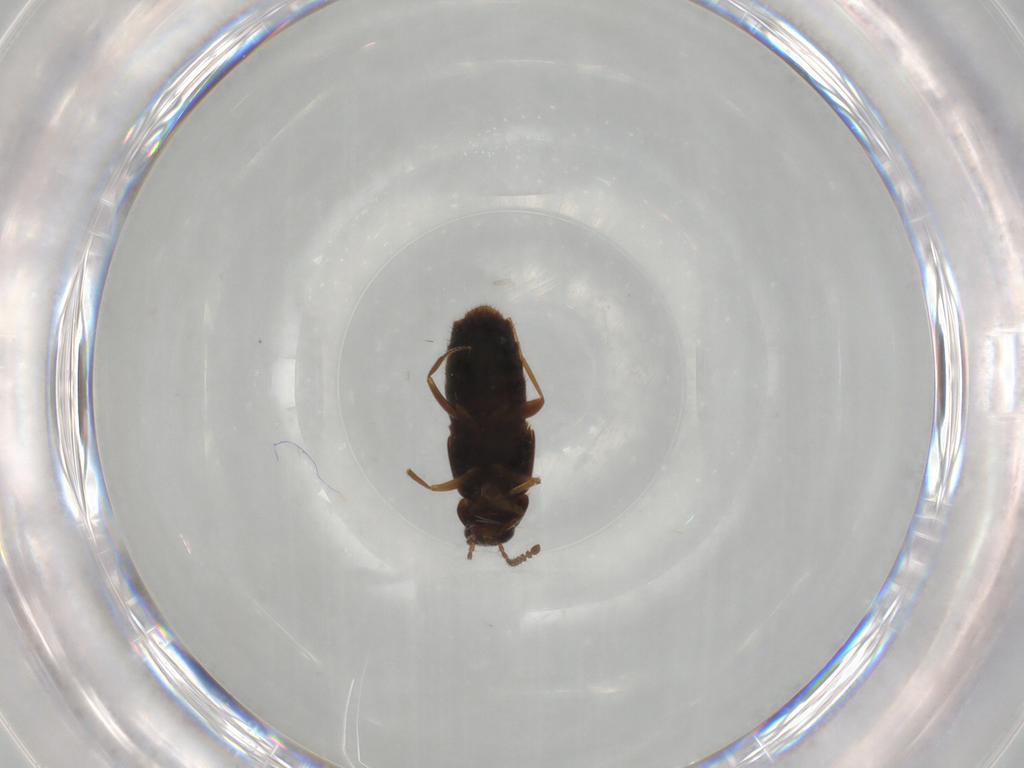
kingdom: Animalia
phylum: Arthropoda
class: Insecta
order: Coleoptera
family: Staphylinidae
